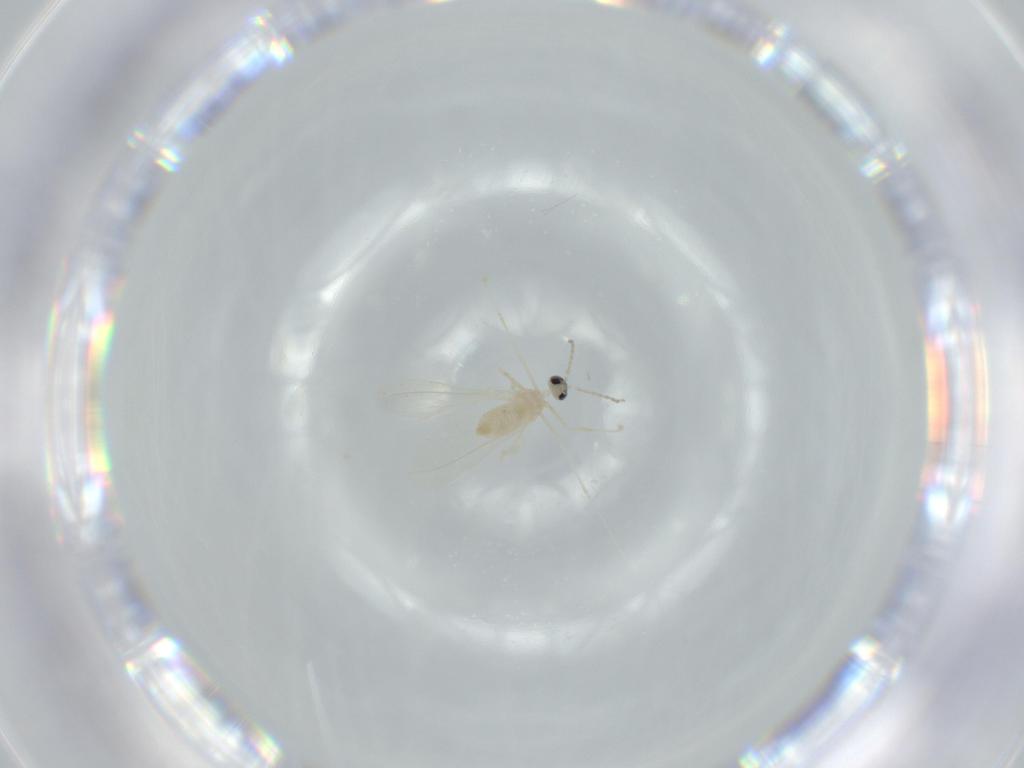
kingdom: Animalia
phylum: Arthropoda
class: Insecta
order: Diptera
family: Cecidomyiidae
